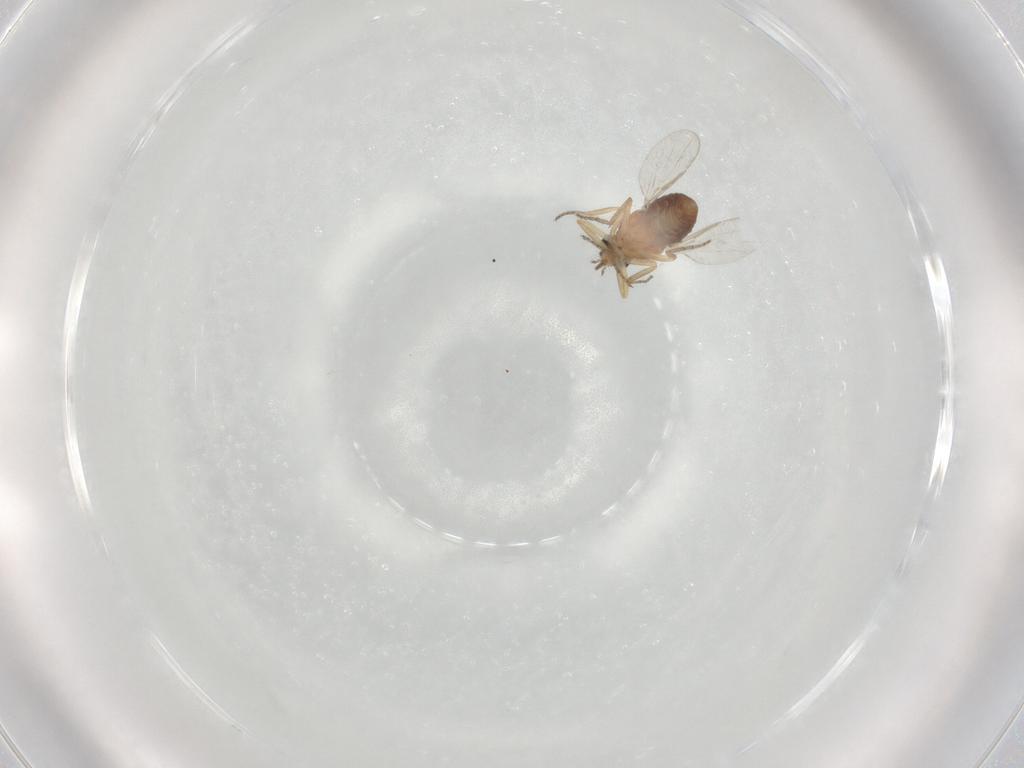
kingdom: Animalia
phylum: Arthropoda
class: Insecta
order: Diptera
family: Ceratopogonidae
